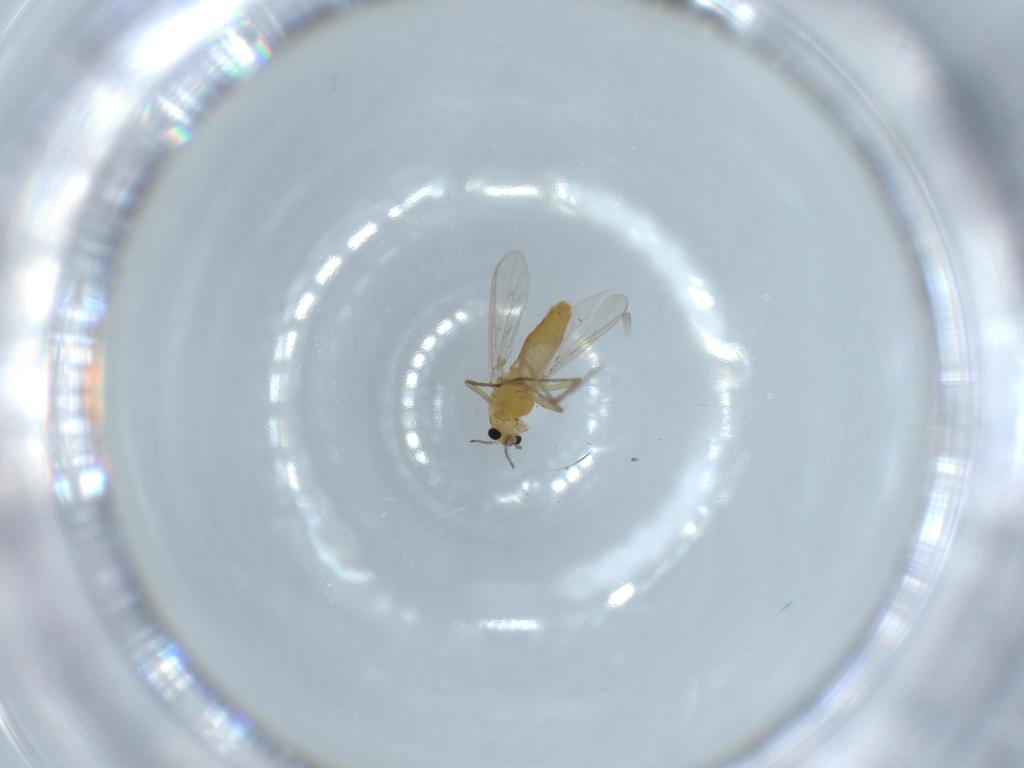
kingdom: Animalia
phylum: Arthropoda
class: Insecta
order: Diptera
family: Chironomidae
